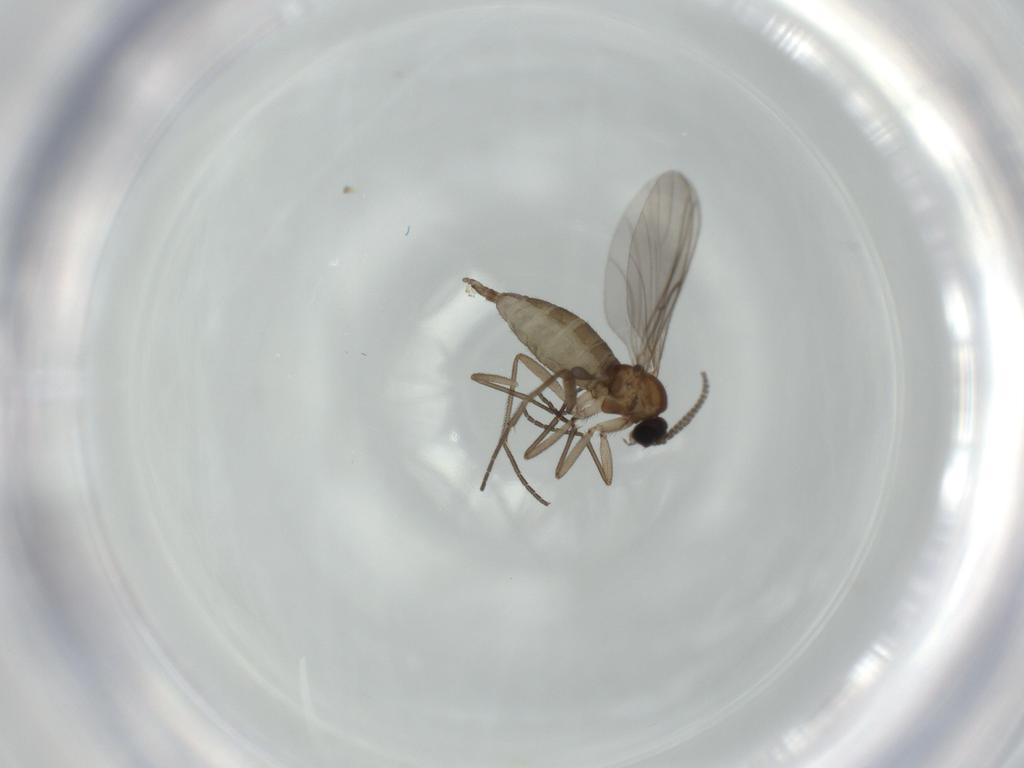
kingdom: Animalia
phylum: Arthropoda
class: Insecta
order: Diptera
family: Sciaridae
